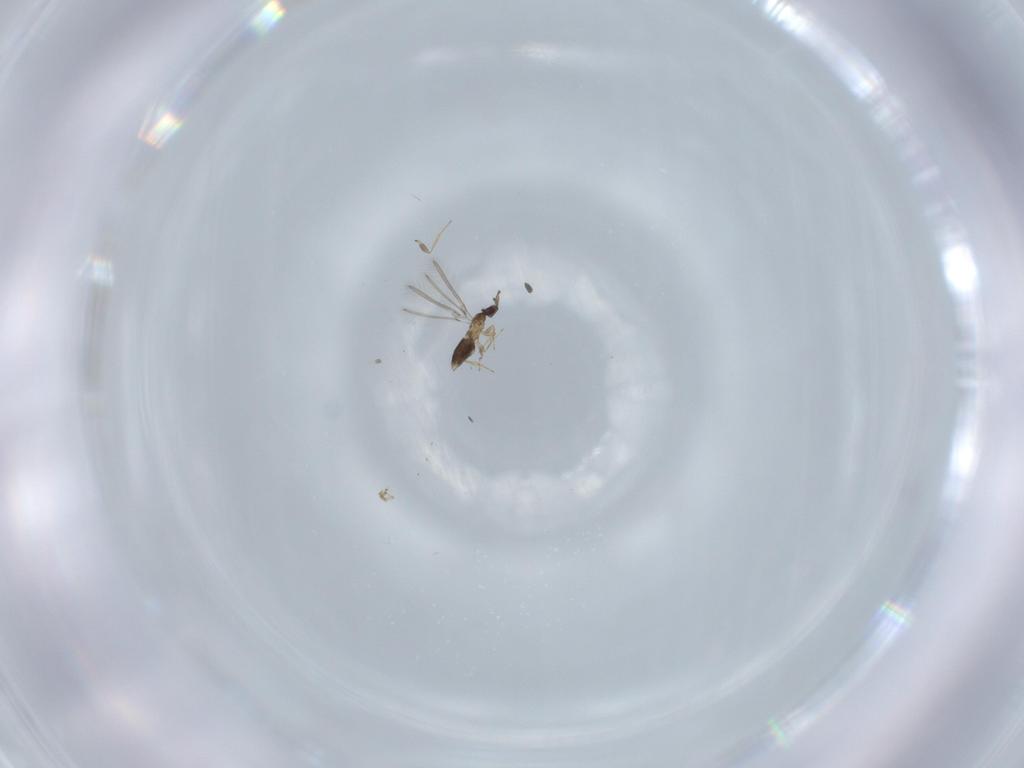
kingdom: Animalia
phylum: Arthropoda
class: Insecta
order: Hymenoptera
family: Mymaridae
